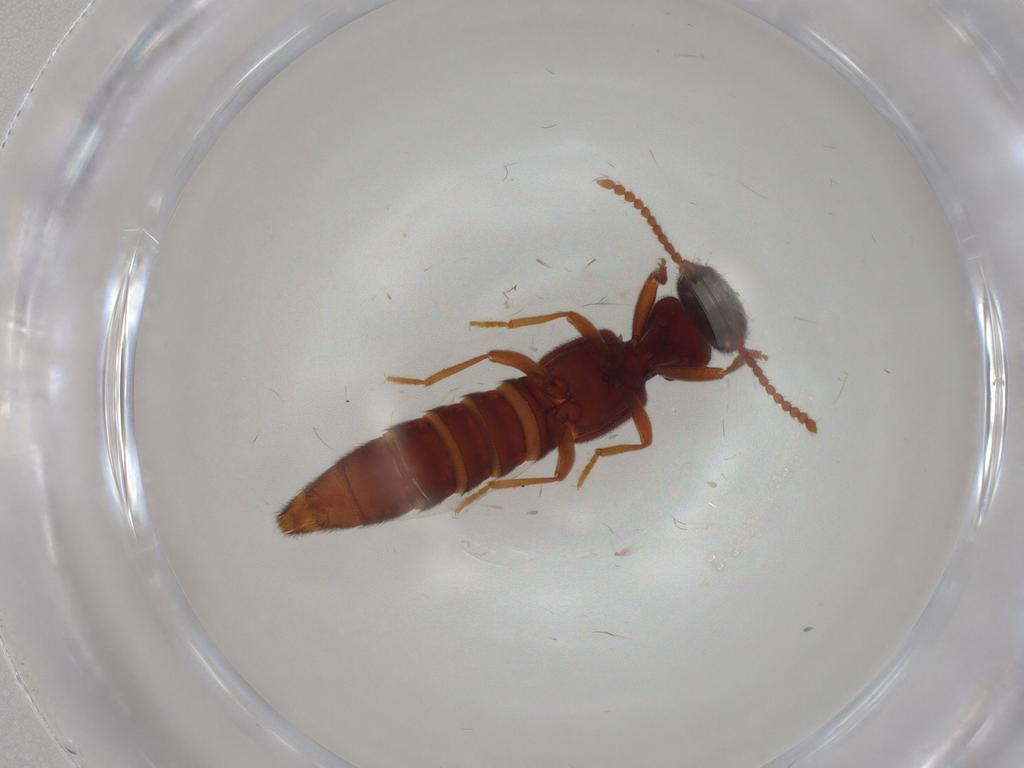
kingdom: Animalia
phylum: Arthropoda
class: Insecta
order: Coleoptera
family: Staphylinidae
